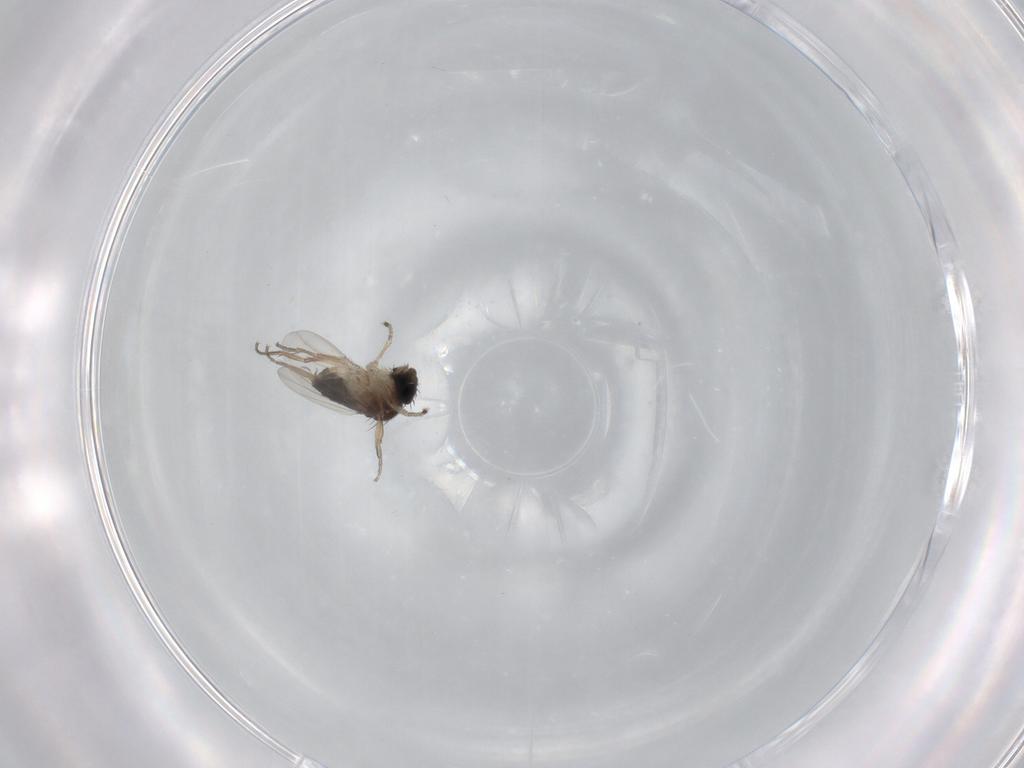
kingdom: Animalia
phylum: Arthropoda
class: Insecta
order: Diptera
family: Phoridae
